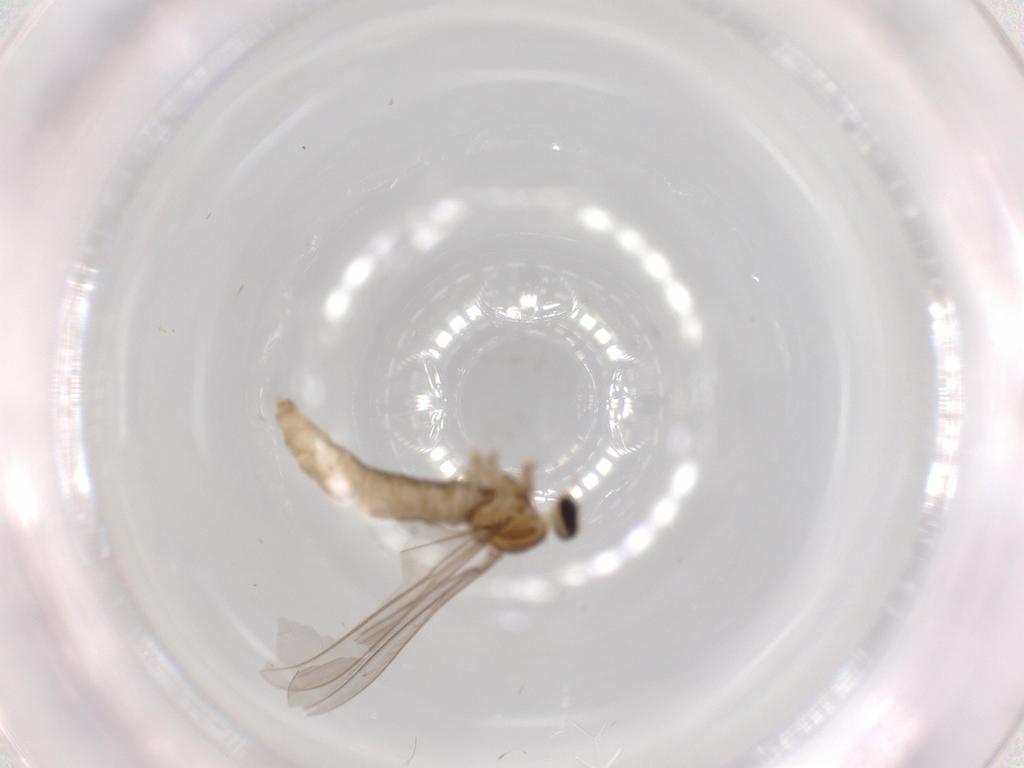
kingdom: Animalia
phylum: Arthropoda
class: Insecta
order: Diptera
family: Cecidomyiidae
